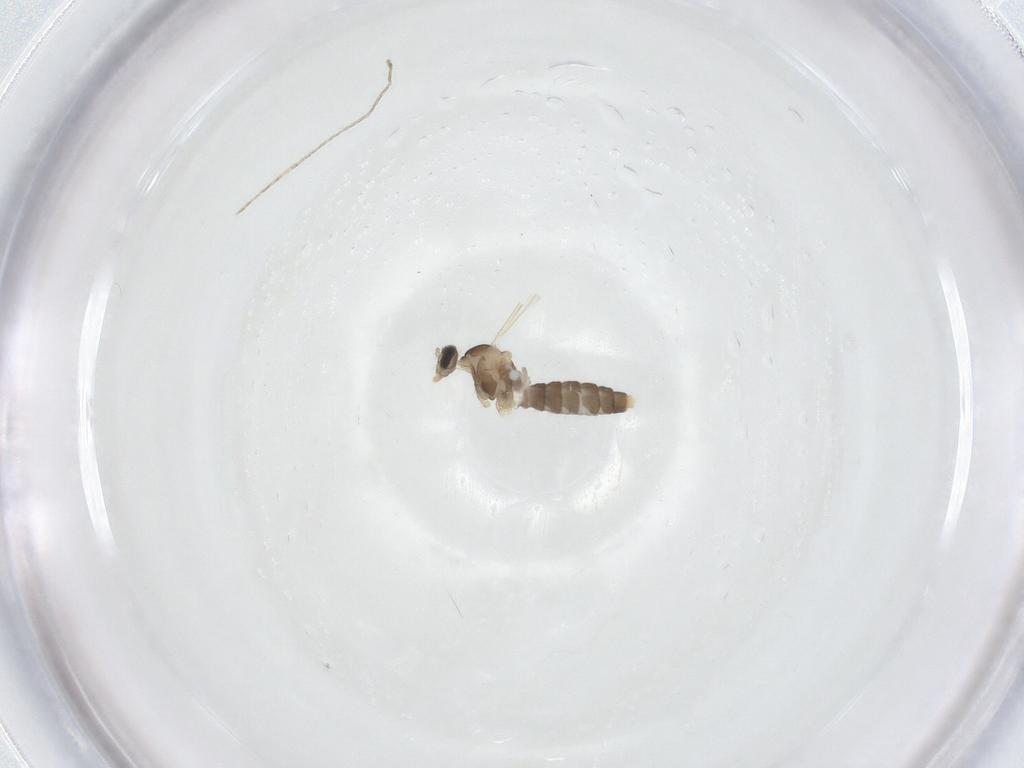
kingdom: Animalia
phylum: Arthropoda
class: Insecta
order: Diptera
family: Cecidomyiidae
